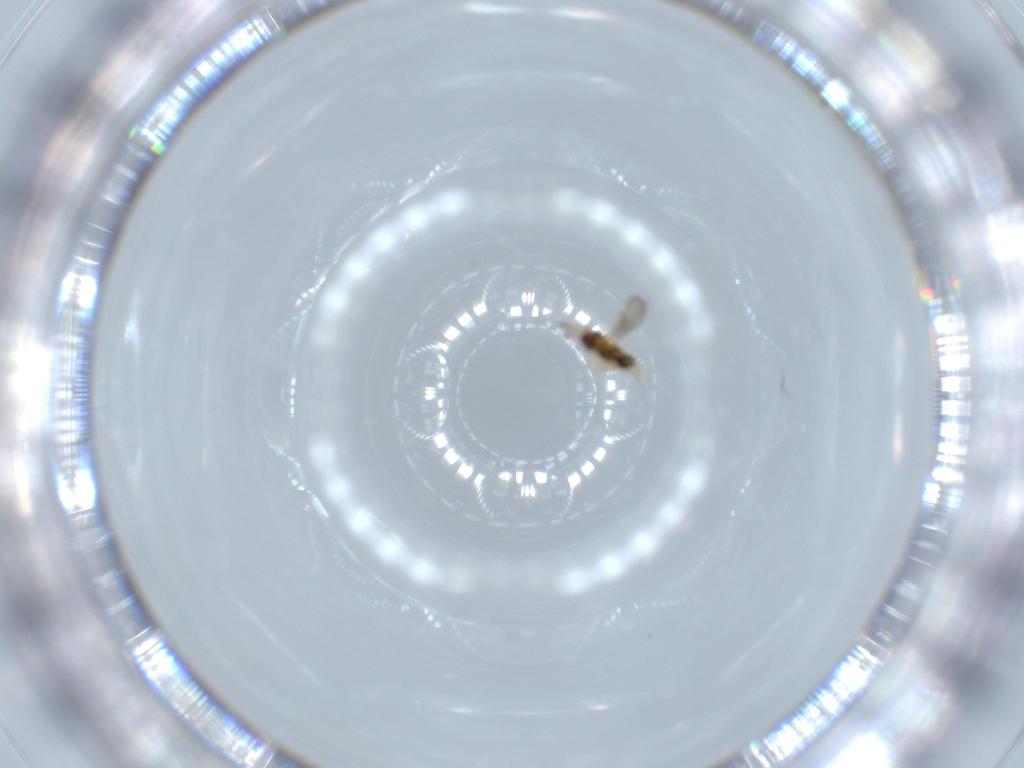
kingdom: Animalia
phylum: Arthropoda
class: Insecta
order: Hymenoptera
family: Aphelinidae
